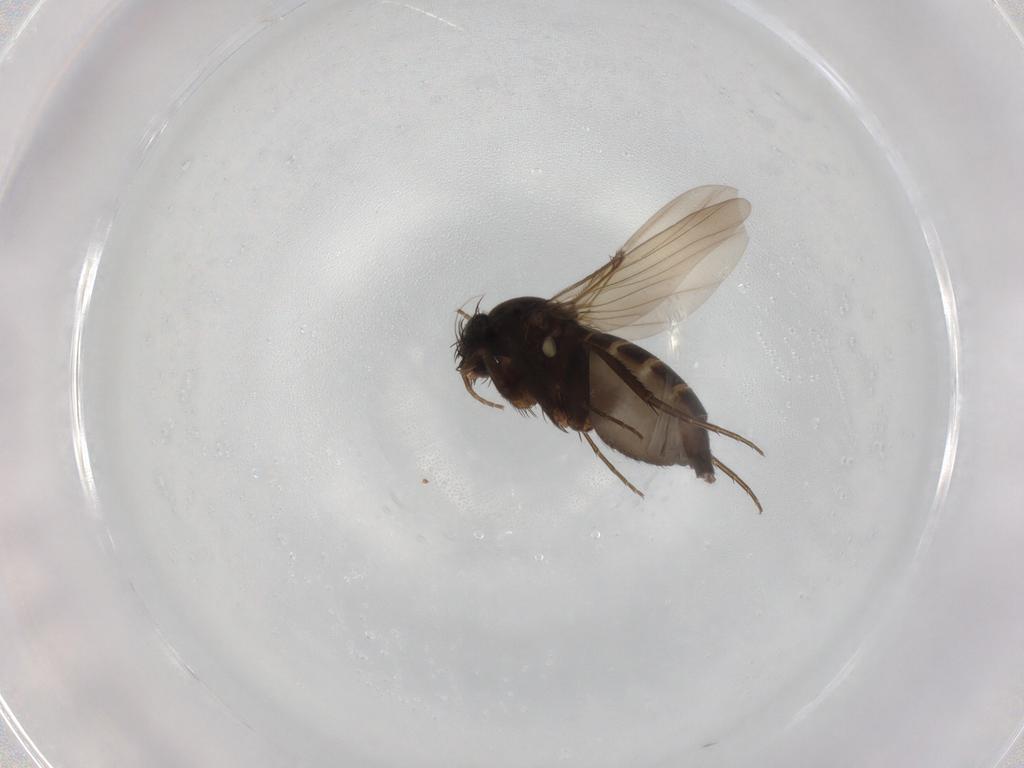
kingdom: Animalia
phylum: Arthropoda
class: Insecta
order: Diptera
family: Phoridae
